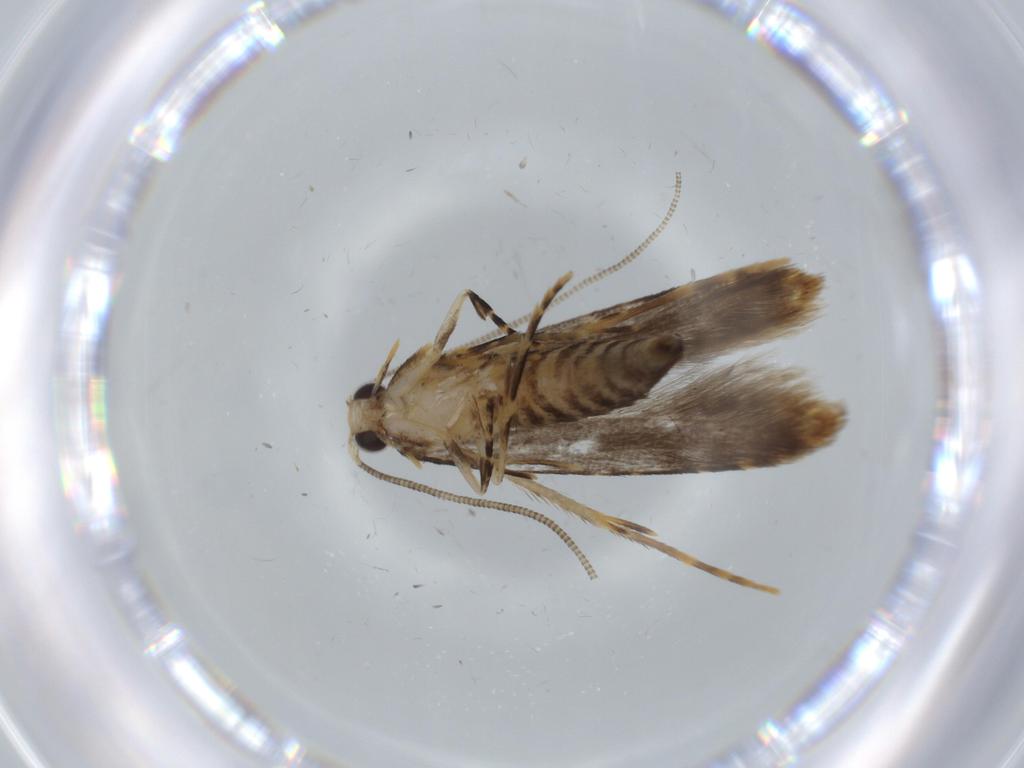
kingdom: Animalia
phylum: Arthropoda
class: Insecta
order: Lepidoptera
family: Tineidae
